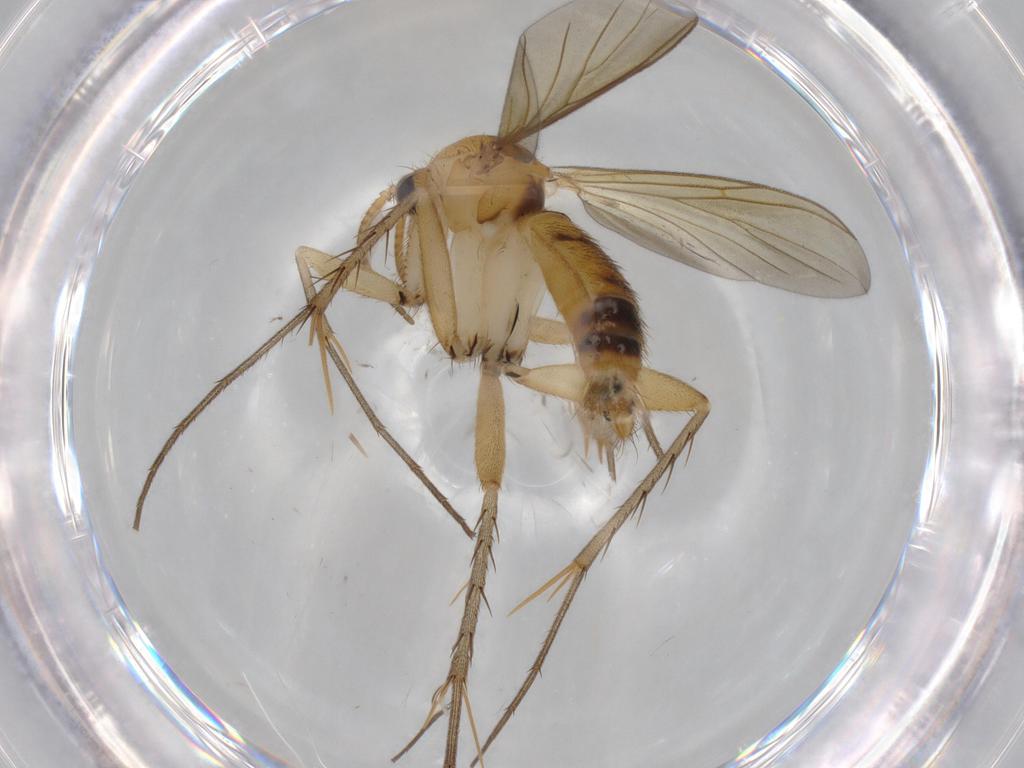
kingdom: Animalia
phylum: Arthropoda
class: Insecta
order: Diptera
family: Mycetophilidae
